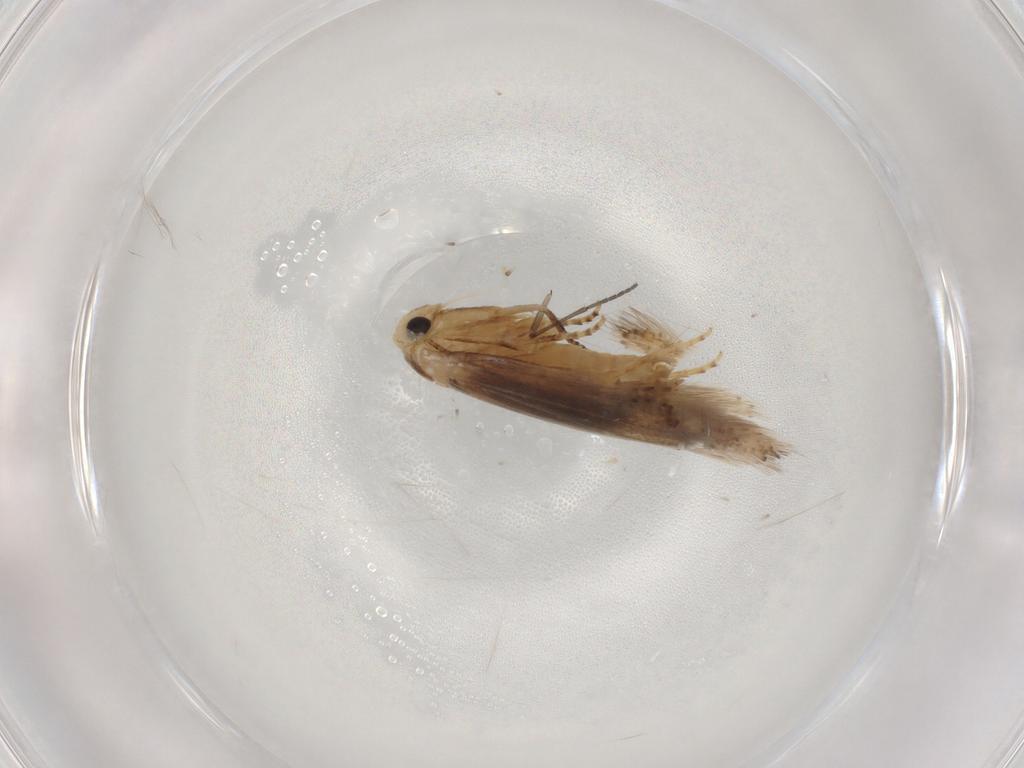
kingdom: Animalia
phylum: Arthropoda
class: Insecta
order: Lepidoptera
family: Bucculatricidae
